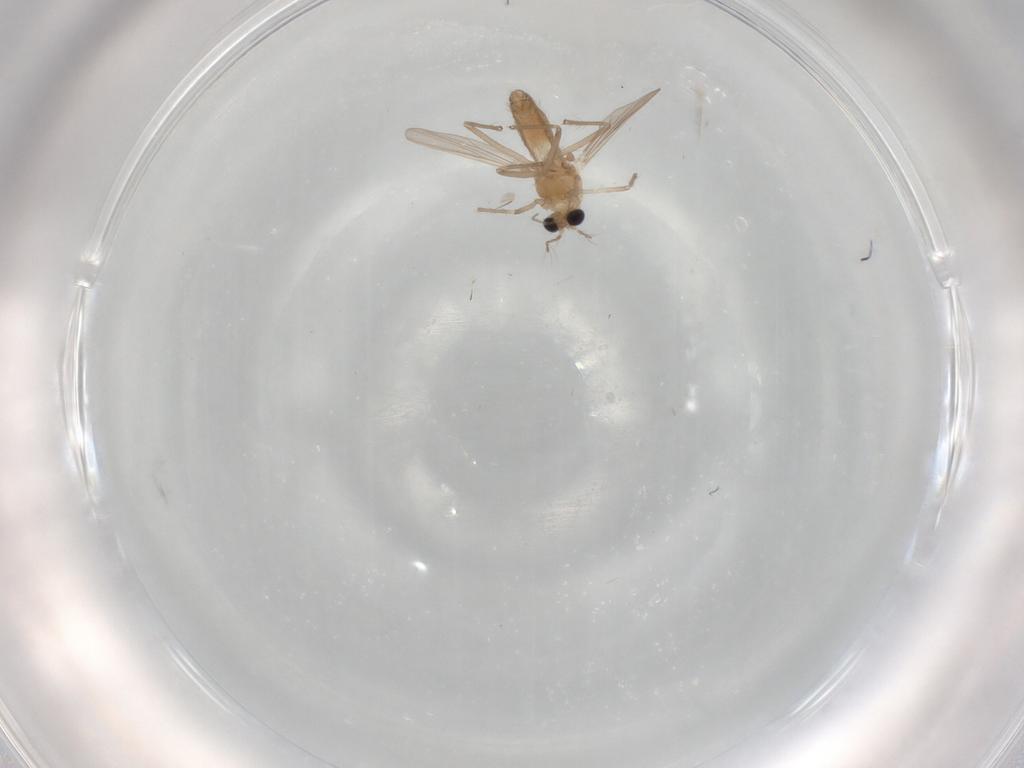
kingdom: Animalia
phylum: Arthropoda
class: Insecta
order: Diptera
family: Chironomidae
